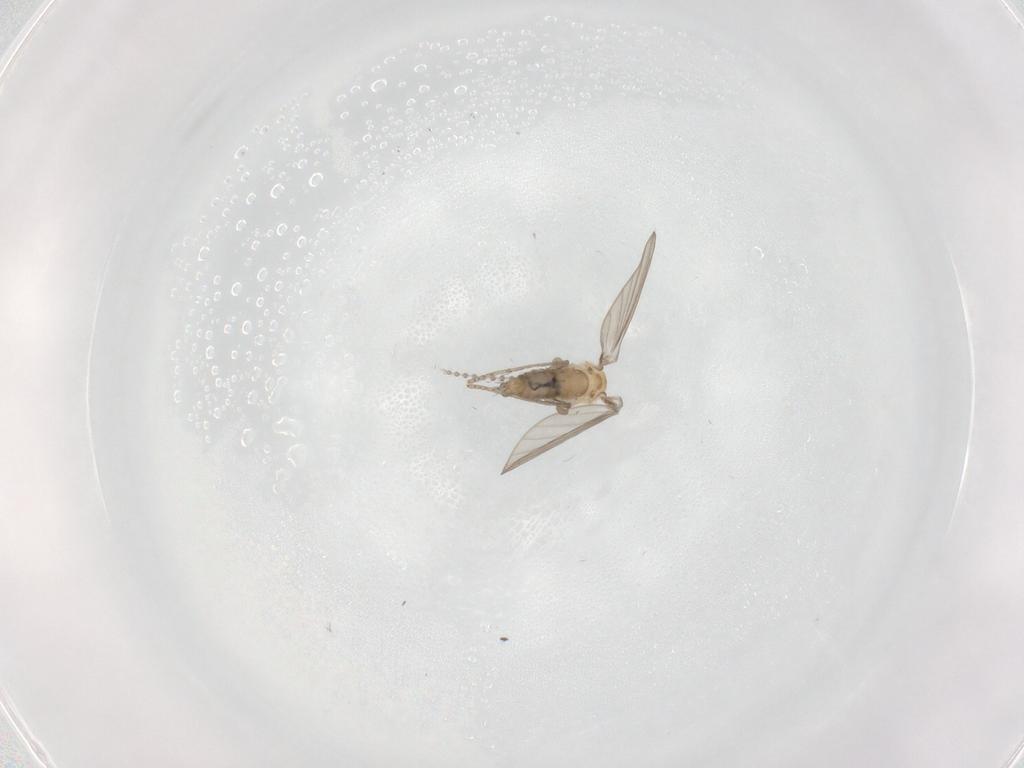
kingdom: Animalia
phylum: Arthropoda
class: Insecta
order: Diptera
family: Psychodidae
